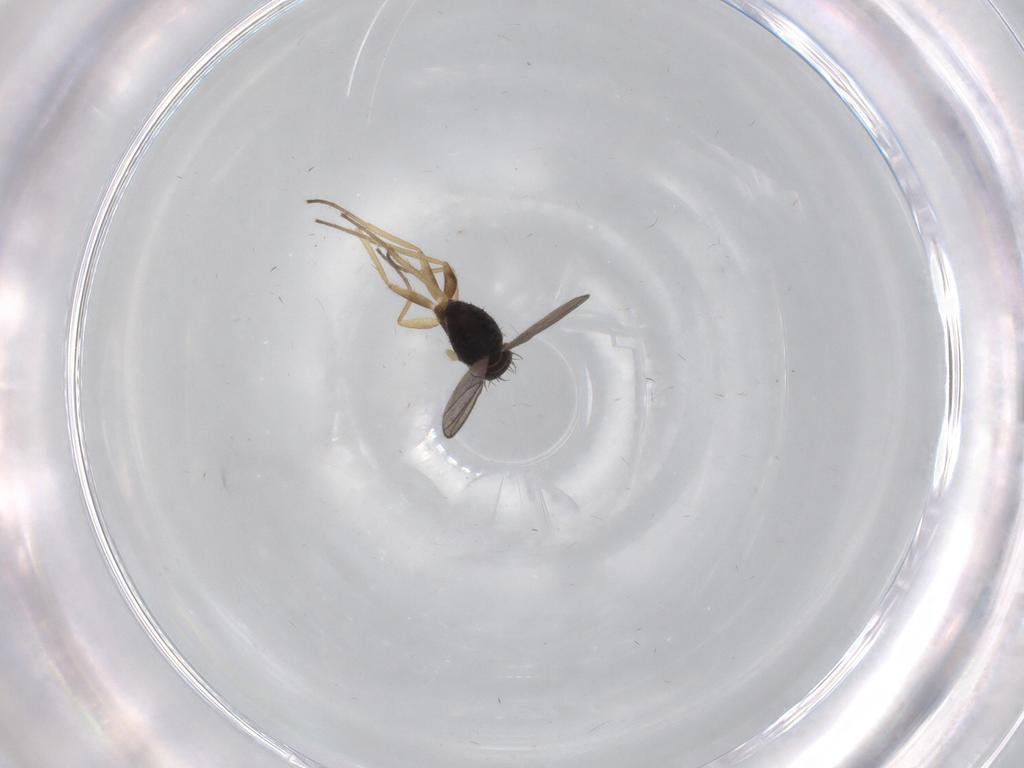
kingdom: Animalia
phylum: Arthropoda
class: Insecta
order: Diptera
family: Dolichopodidae
